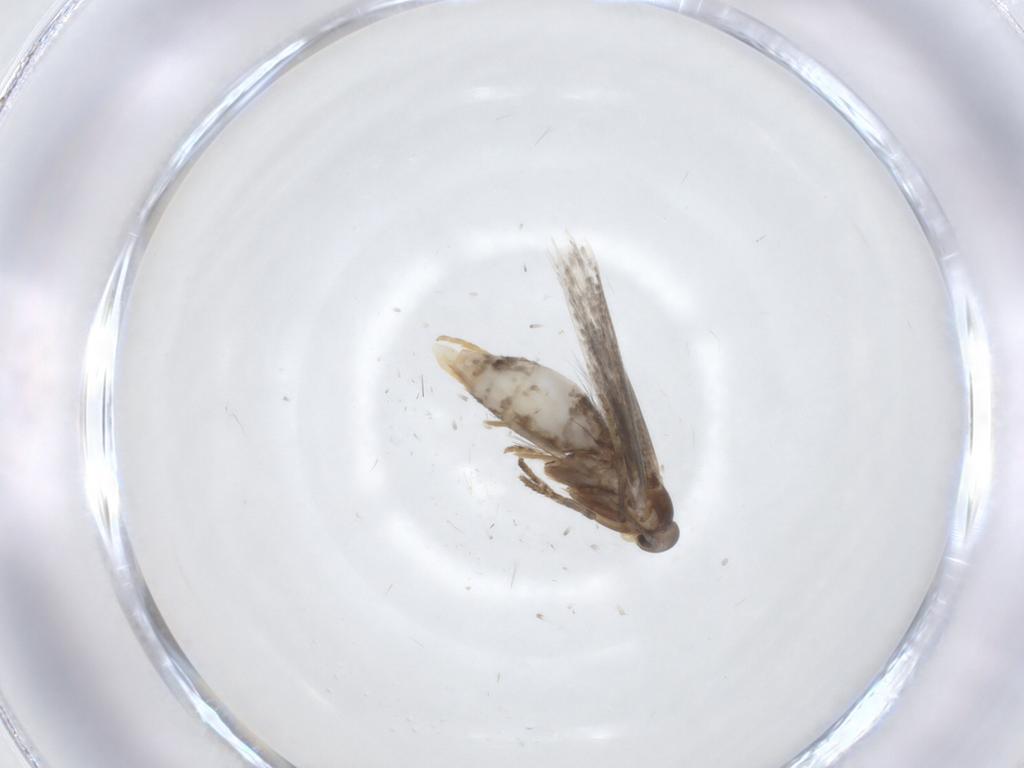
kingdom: Animalia
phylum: Arthropoda
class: Insecta
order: Lepidoptera
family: Elachistidae
